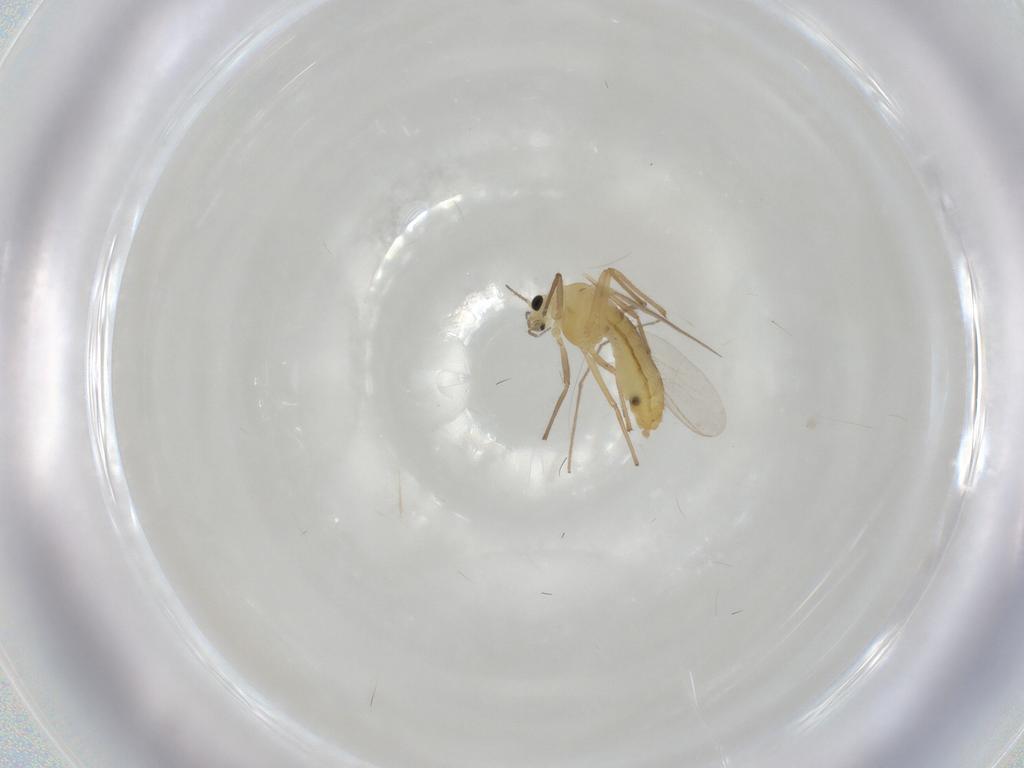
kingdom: Animalia
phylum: Arthropoda
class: Insecta
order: Diptera
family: Chironomidae
